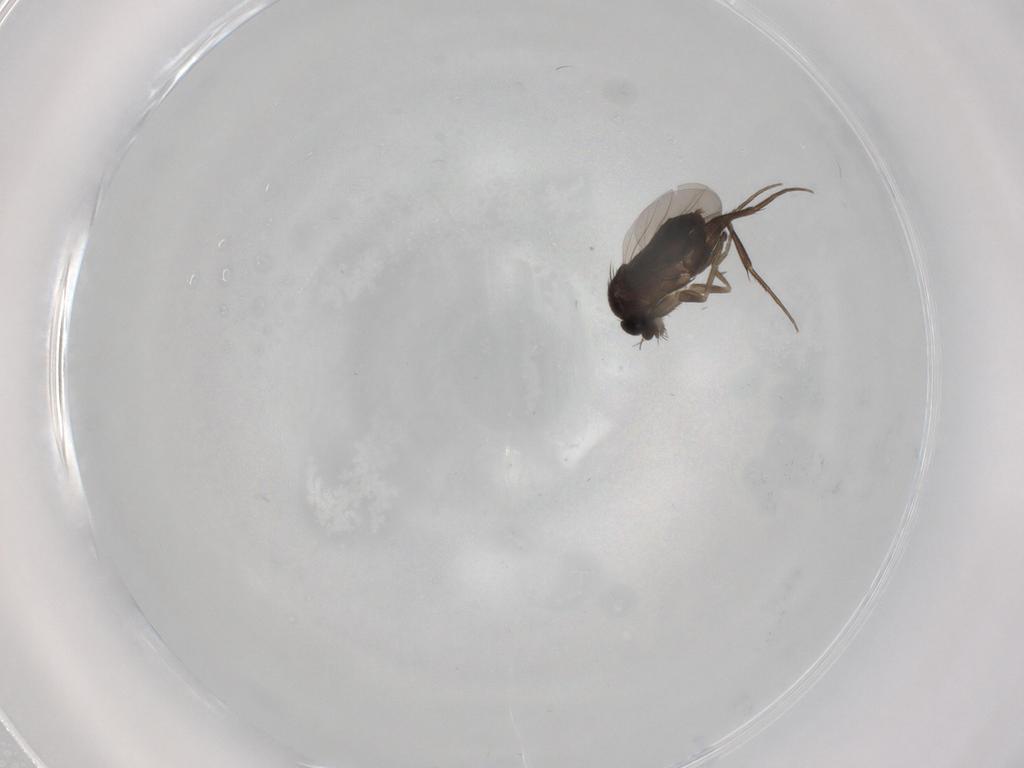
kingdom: Animalia
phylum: Arthropoda
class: Insecta
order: Diptera
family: Phoridae
